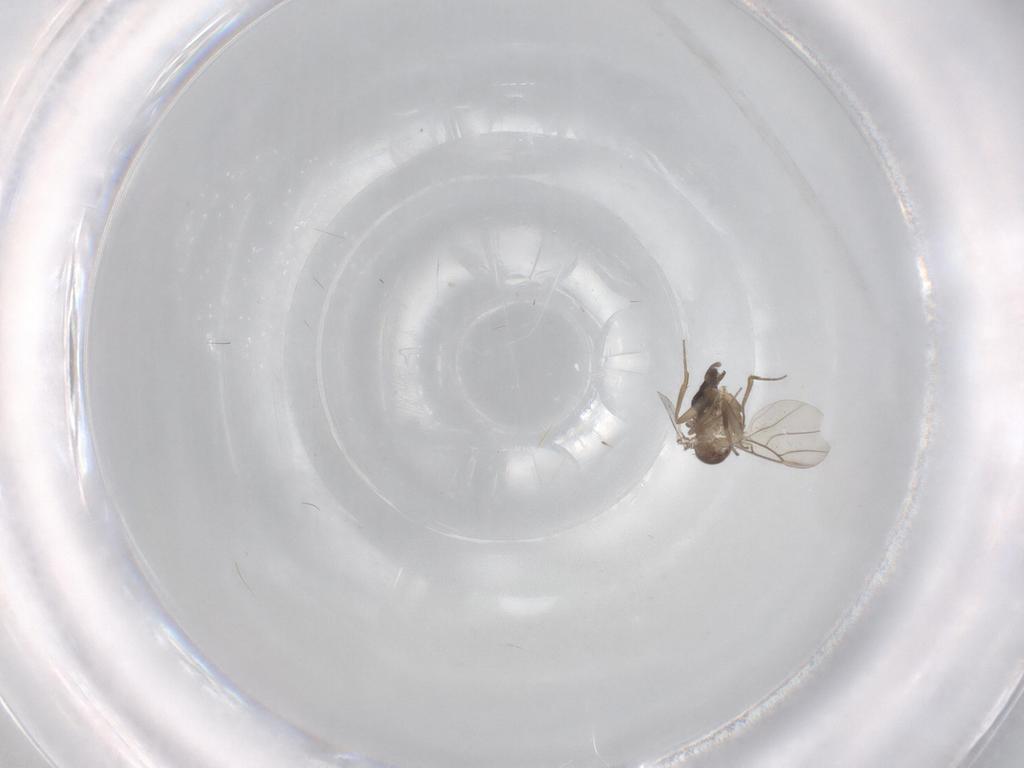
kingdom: Animalia
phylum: Arthropoda
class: Insecta
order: Diptera
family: Phoridae
